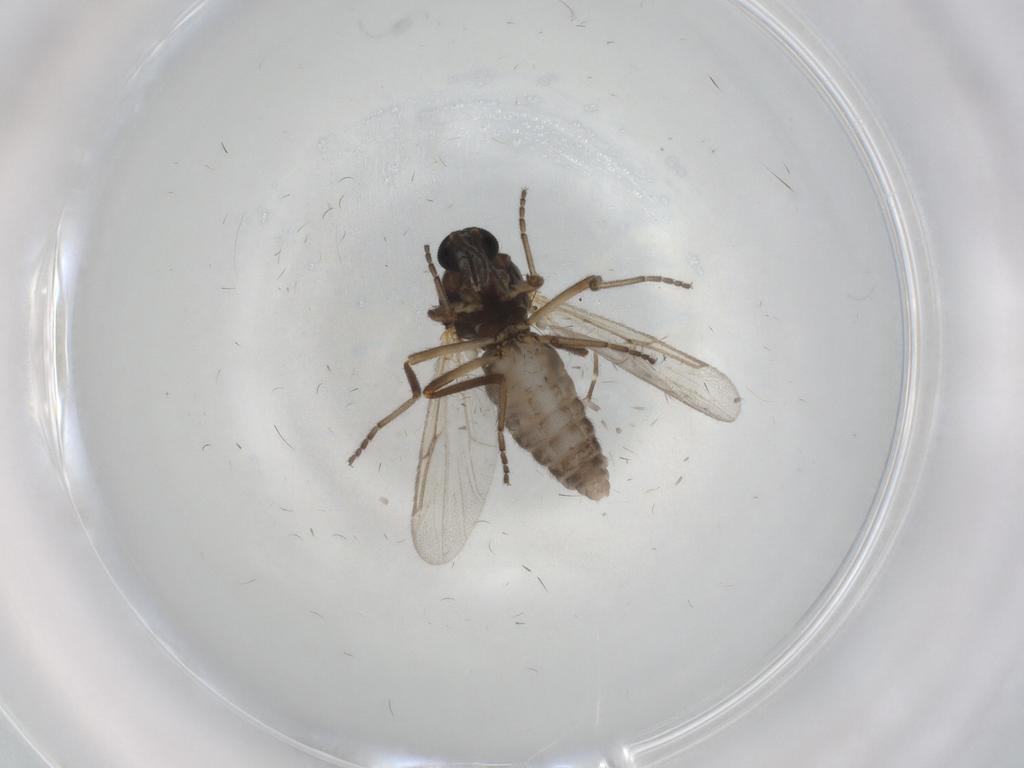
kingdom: Animalia
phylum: Arthropoda
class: Insecta
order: Diptera
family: Ceratopogonidae
